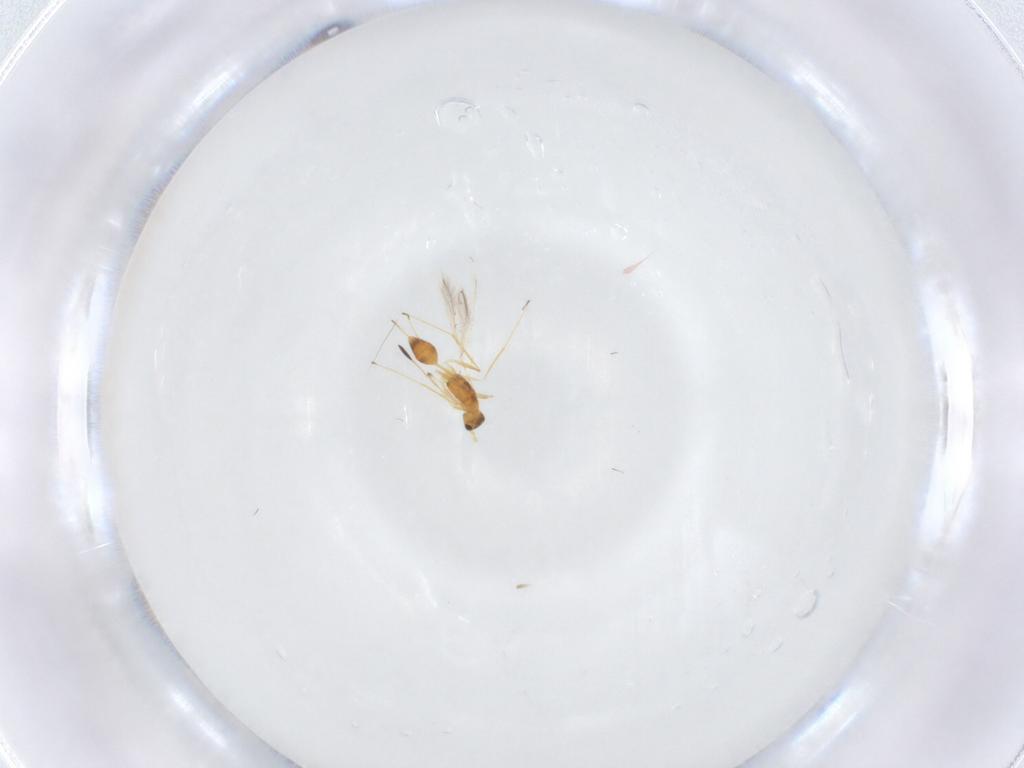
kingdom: Animalia
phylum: Arthropoda
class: Insecta
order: Hymenoptera
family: Mymaridae
